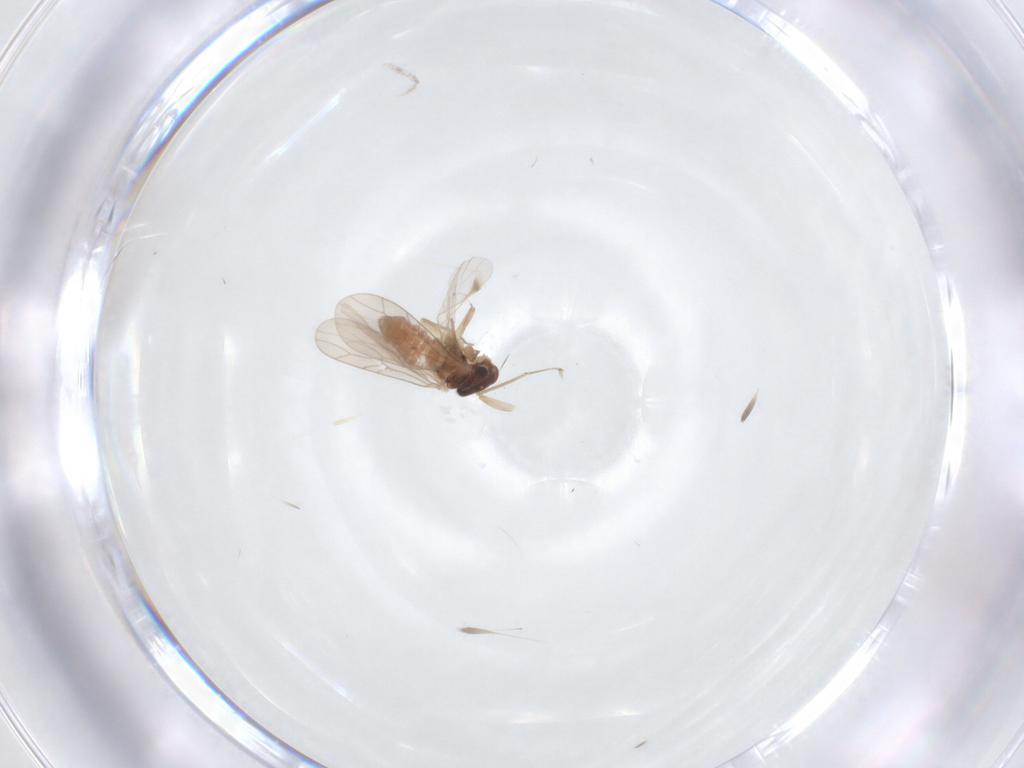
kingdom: Animalia
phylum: Arthropoda
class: Insecta
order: Psocodea
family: Lepidopsocidae
